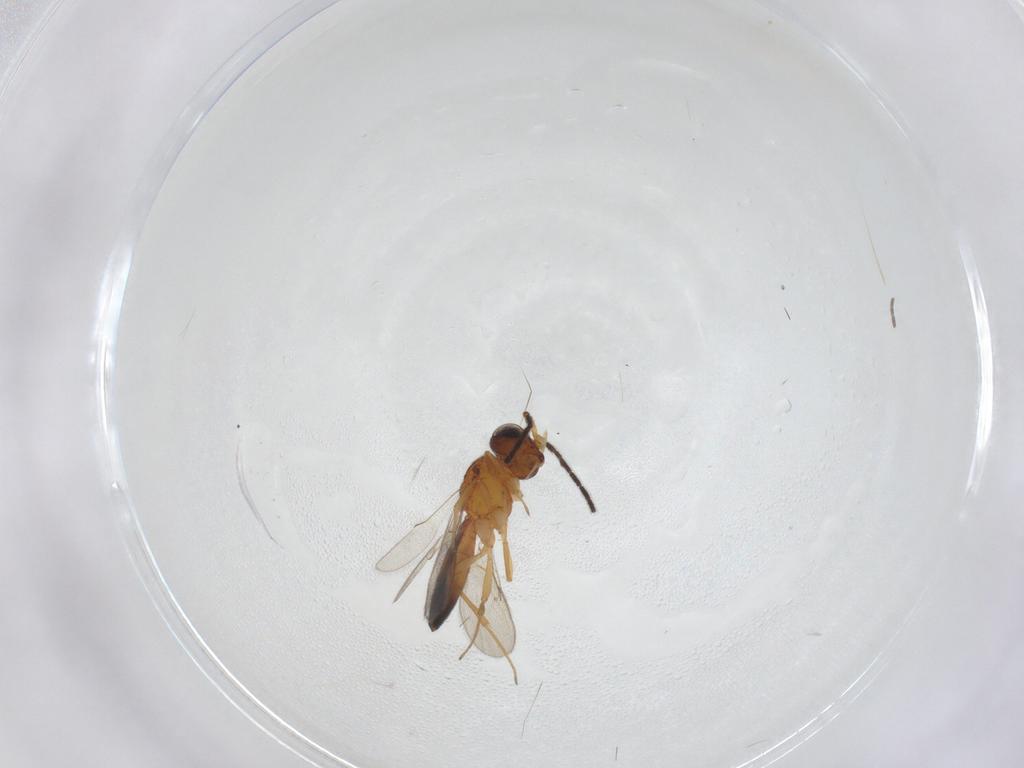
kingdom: Animalia
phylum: Arthropoda
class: Insecta
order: Hymenoptera
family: Scelionidae
